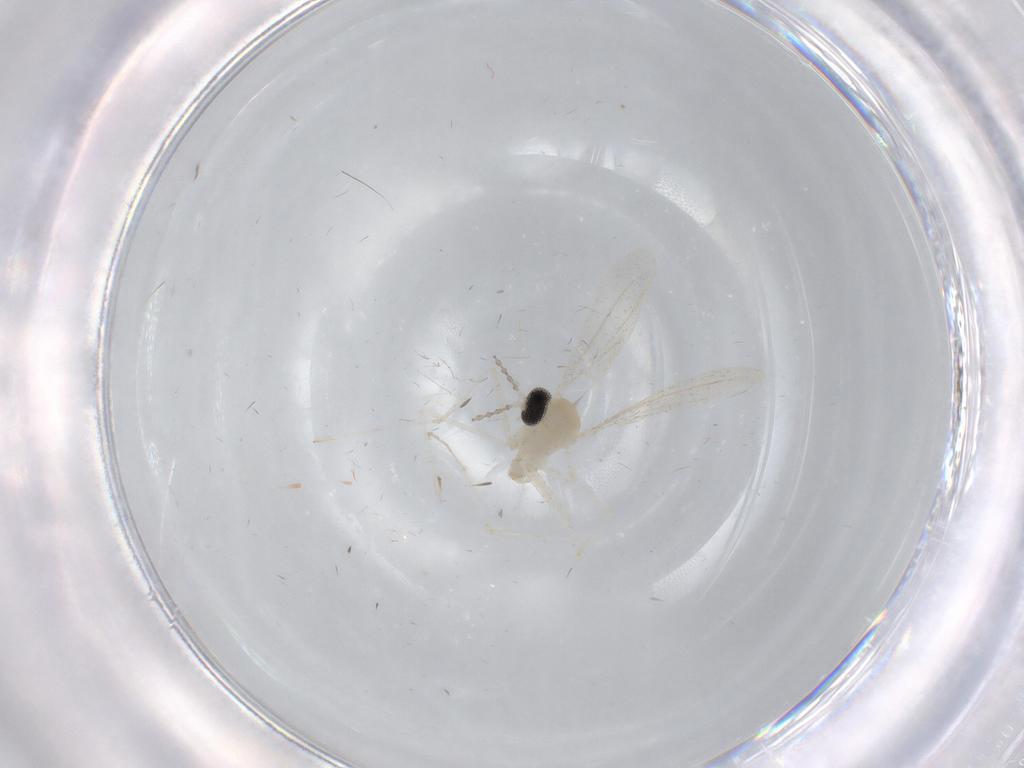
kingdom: Animalia
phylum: Arthropoda
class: Insecta
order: Diptera
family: Cecidomyiidae
